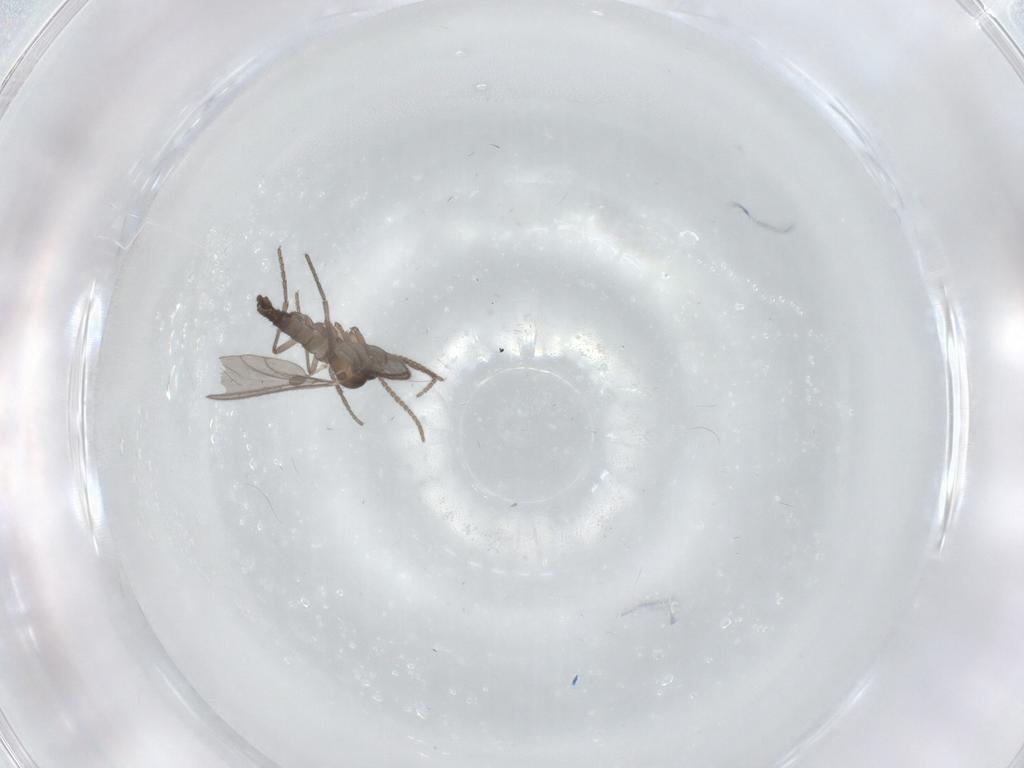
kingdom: Animalia
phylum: Arthropoda
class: Insecta
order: Diptera
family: Sciaridae
